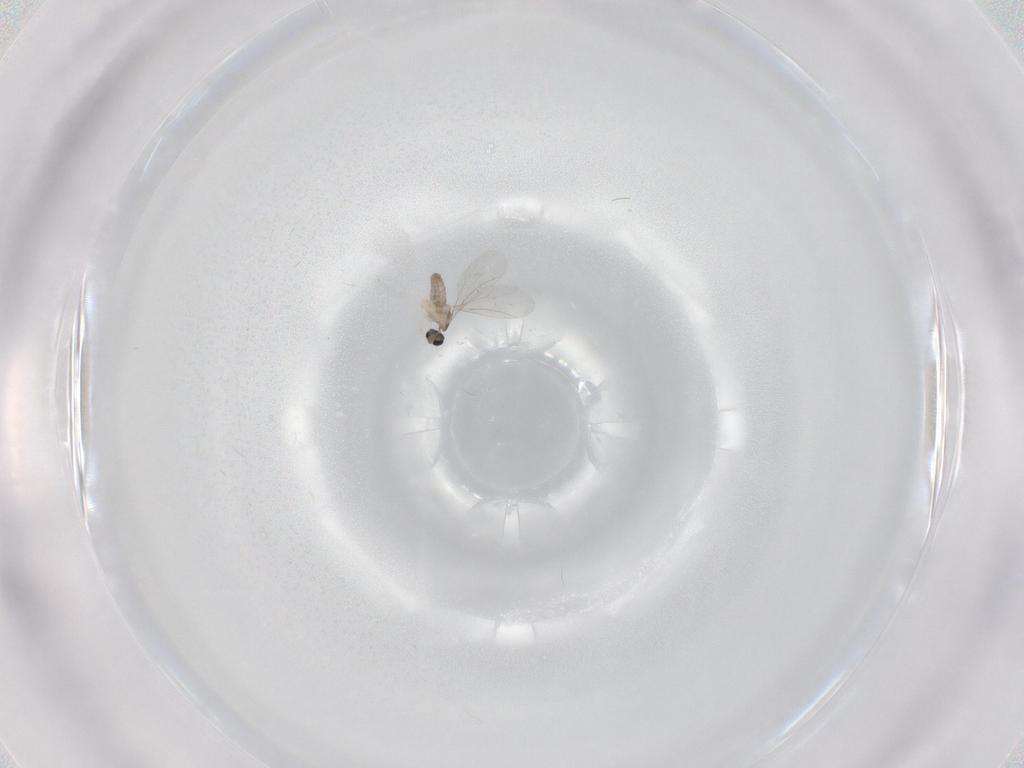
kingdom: Animalia
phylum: Arthropoda
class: Insecta
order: Diptera
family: Cecidomyiidae
